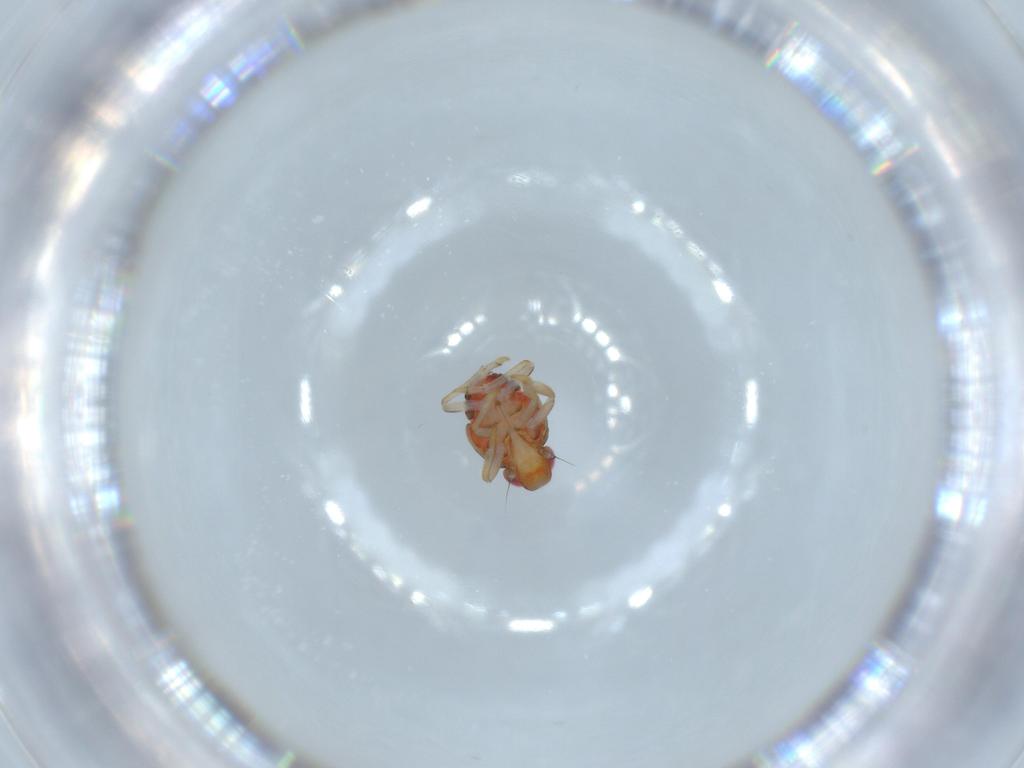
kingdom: Animalia
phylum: Arthropoda
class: Insecta
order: Hemiptera
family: Issidae
